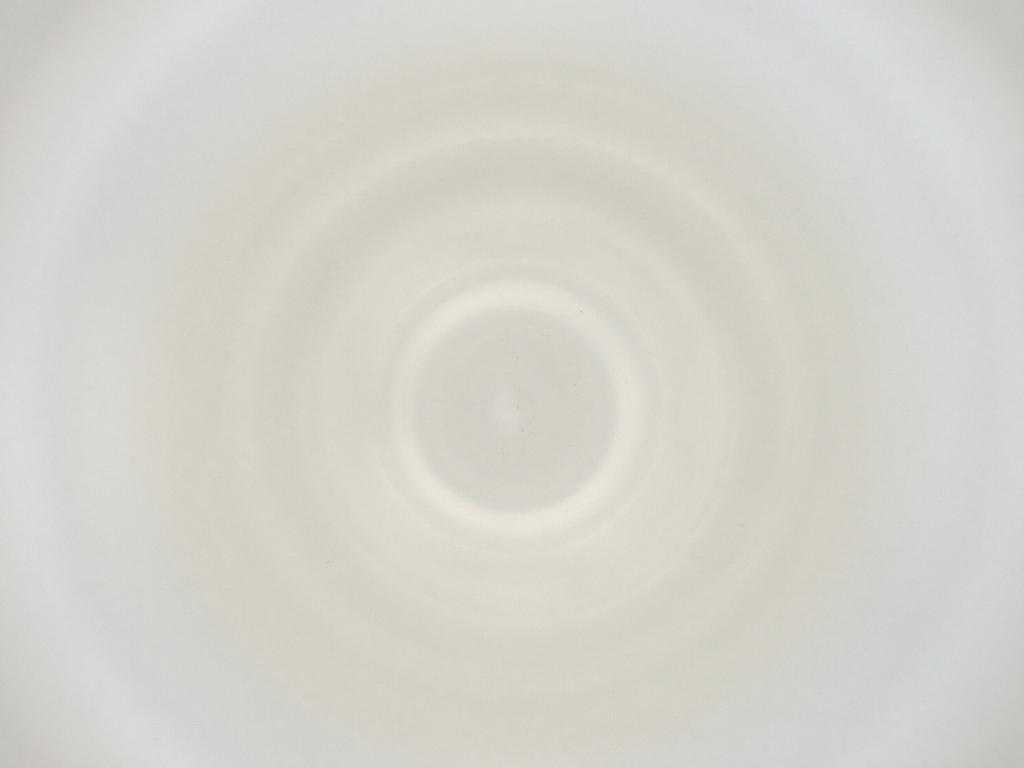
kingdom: Animalia
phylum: Arthropoda
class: Insecta
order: Diptera
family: Cecidomyiidae
